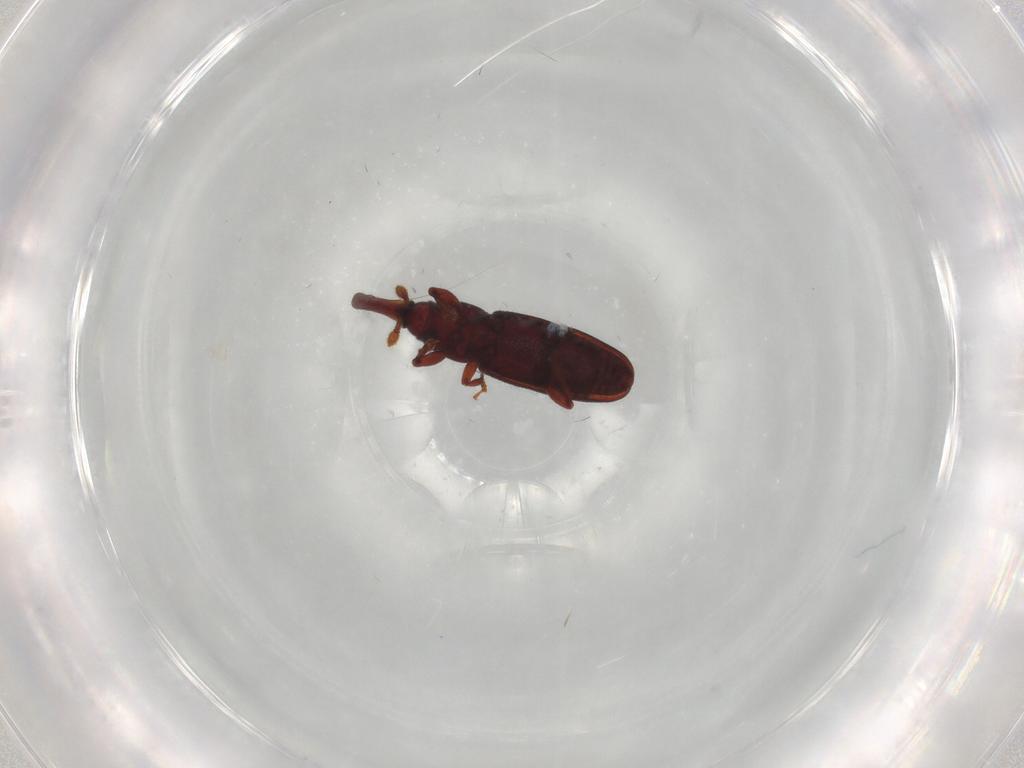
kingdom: Animalia
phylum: Arthropoda
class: Insecta
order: Coleoptera
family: Curculionidae
